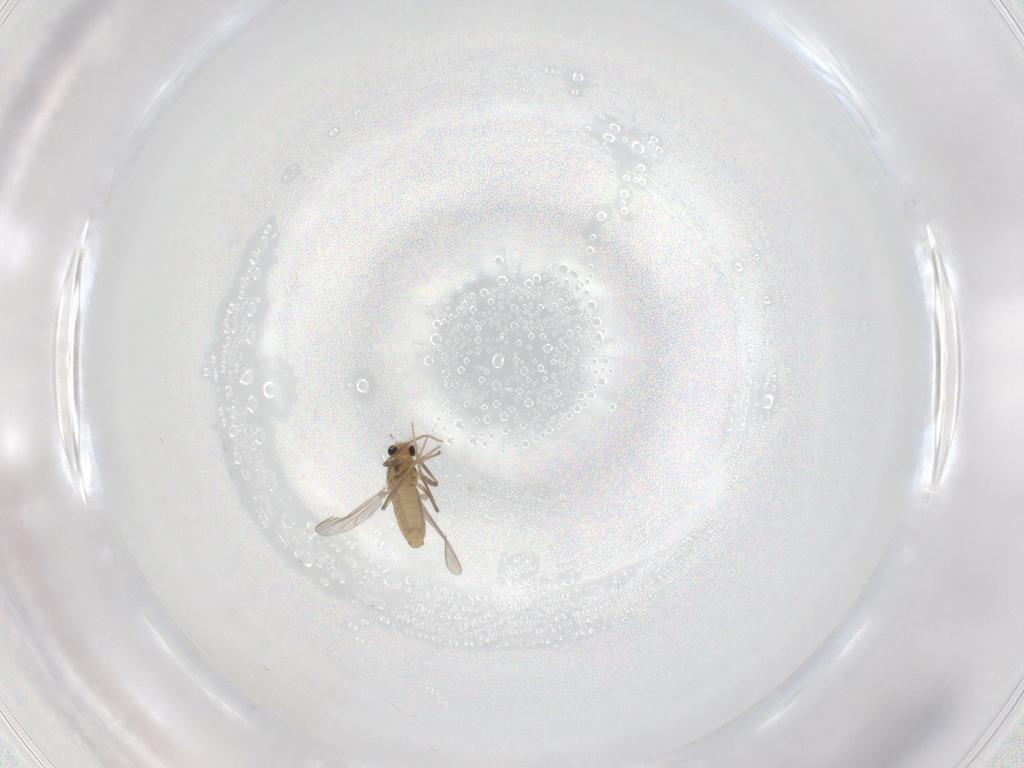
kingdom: Animalia
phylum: Arthropoda
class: Insecta
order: Diptera
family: Chironomidae
